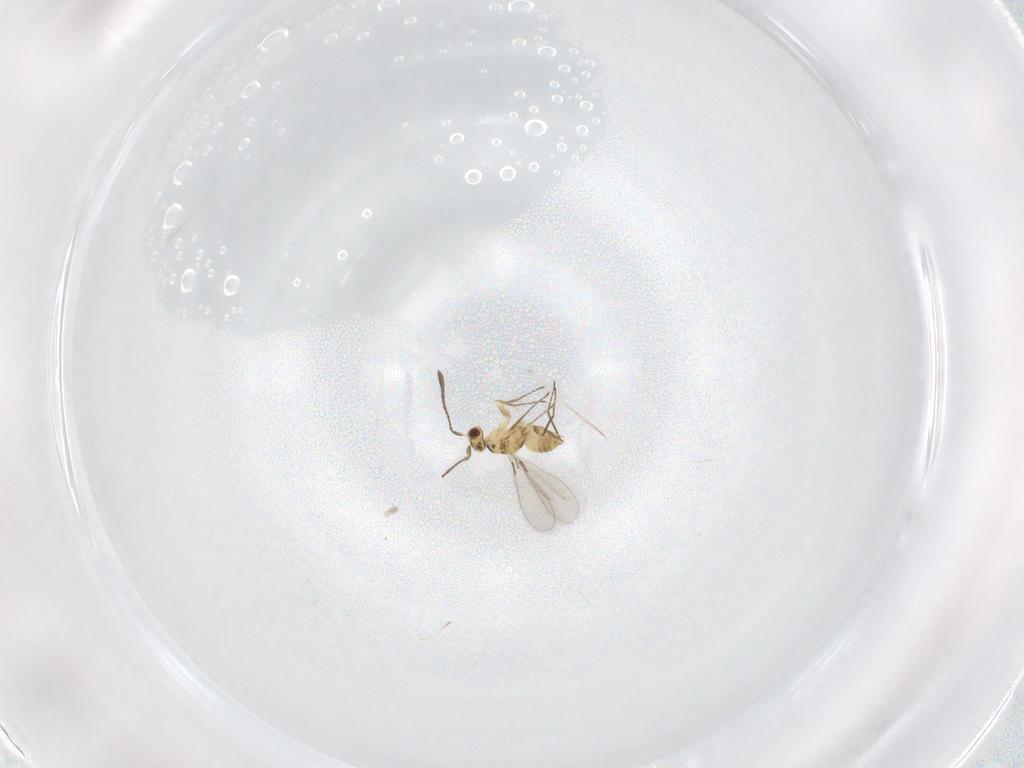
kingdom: Animalia
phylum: Arthropoda
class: Insecta
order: Hymenoptera
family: Mymaridae
